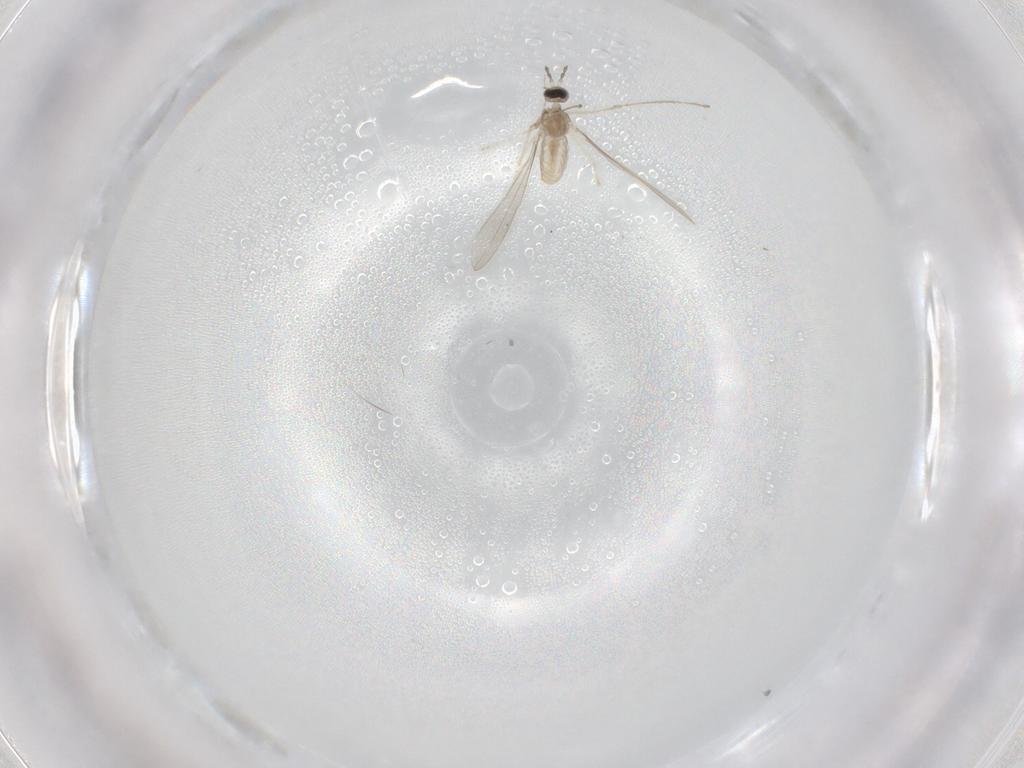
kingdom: Animalia
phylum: Arthropoda
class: Insecta
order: Diptera
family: Cecidomyiidae
